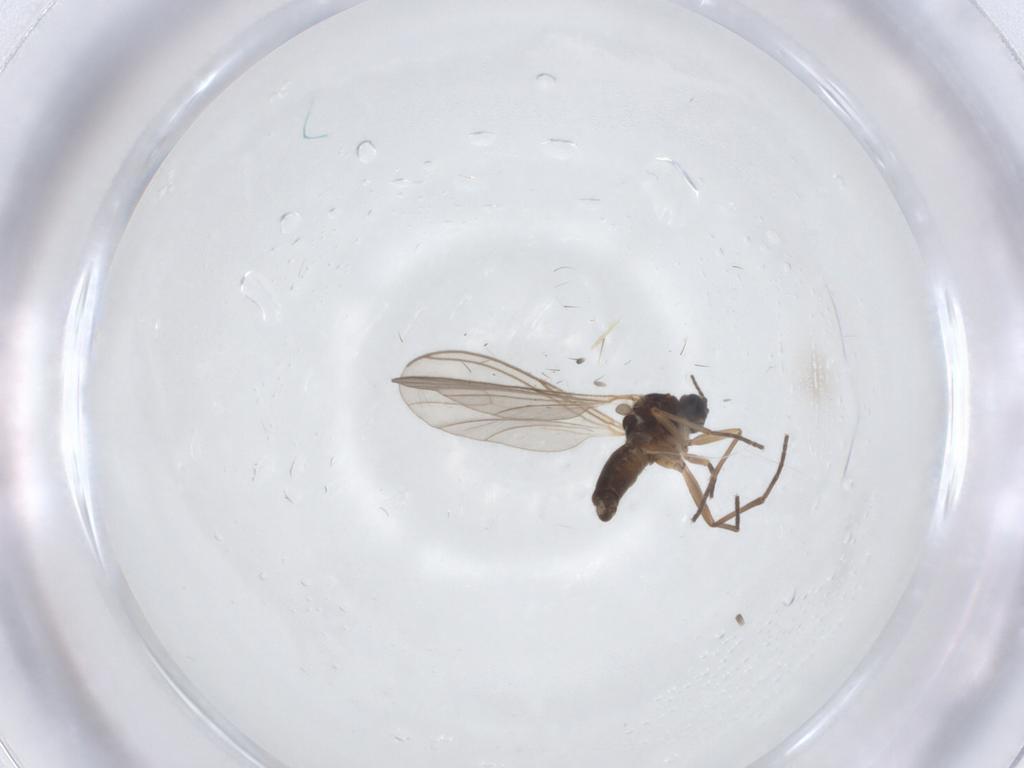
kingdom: Animalia
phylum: Arthropoda
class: Insecta
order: Diptera
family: Sciaridae
